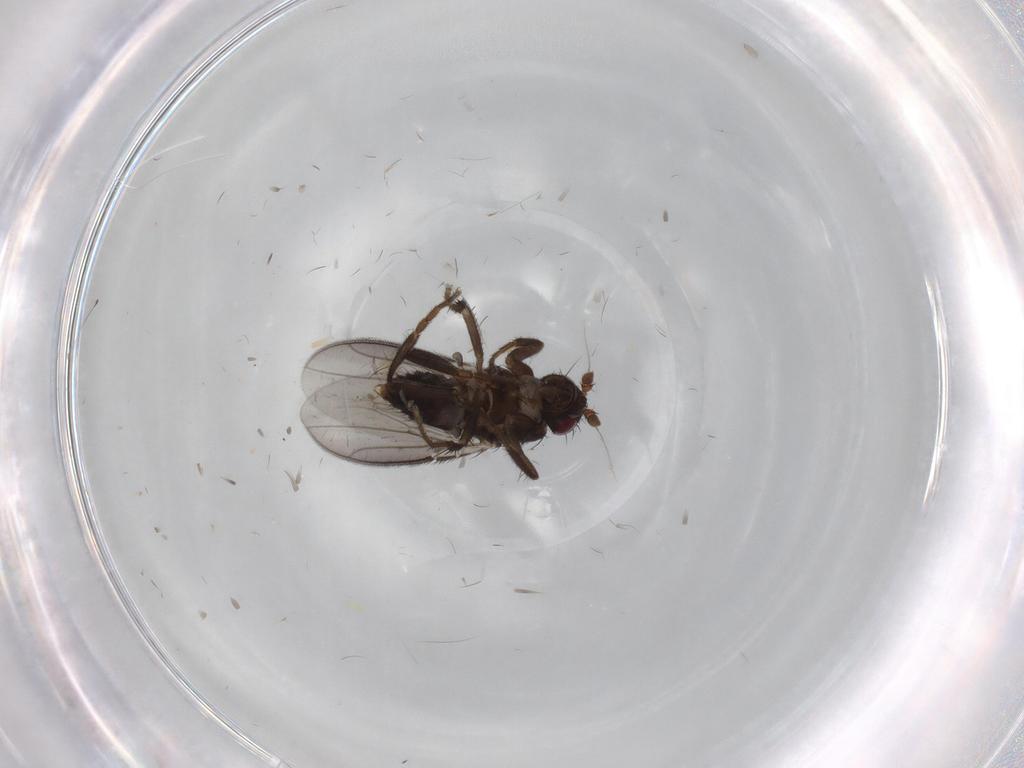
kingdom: Animalia
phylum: Arthropoda
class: Insecta
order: Diptera
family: Sphaeroceridae
